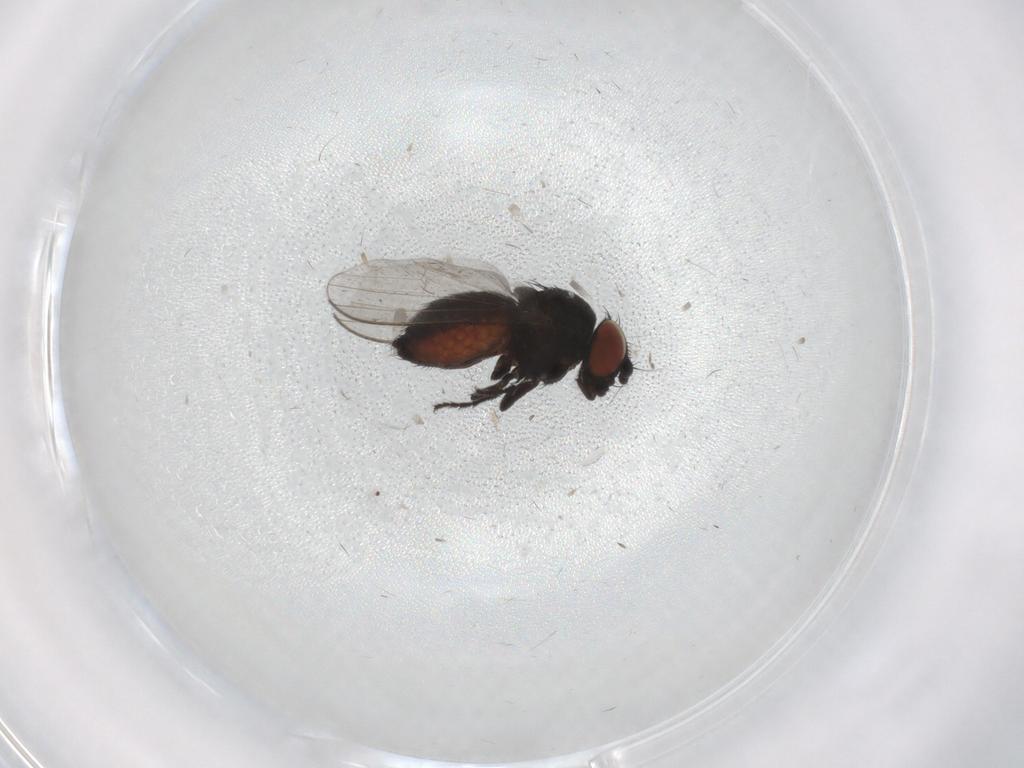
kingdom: Animalia
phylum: Arthropoda
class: Insecta
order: Diptera
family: Milichiidae
